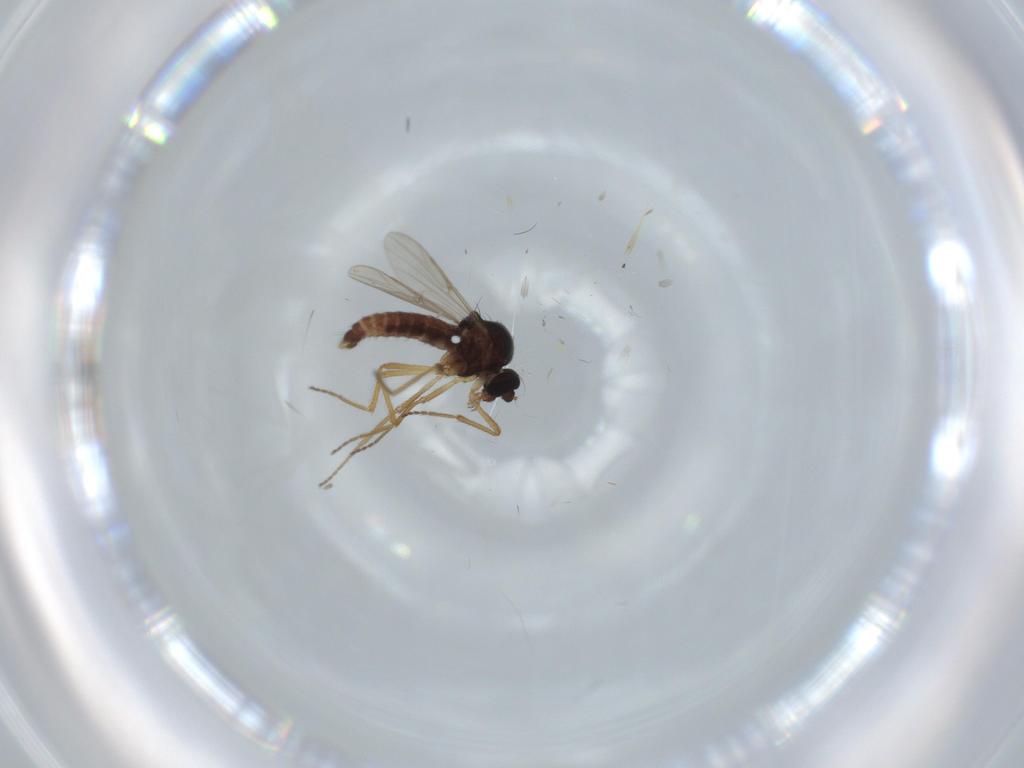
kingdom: Animalia
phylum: Arthropoda
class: Insecta
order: Diptera
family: Ceratopogonidae
